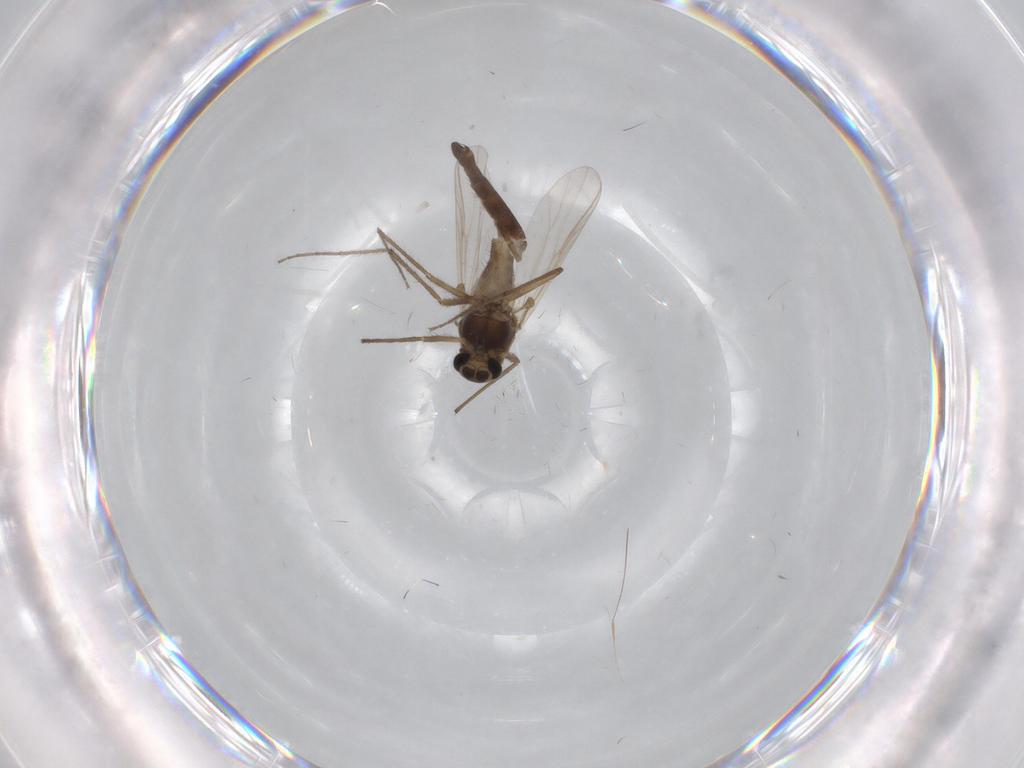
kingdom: Animalia
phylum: Arthropoda
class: Insecta
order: Diptera
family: Chironomidae
